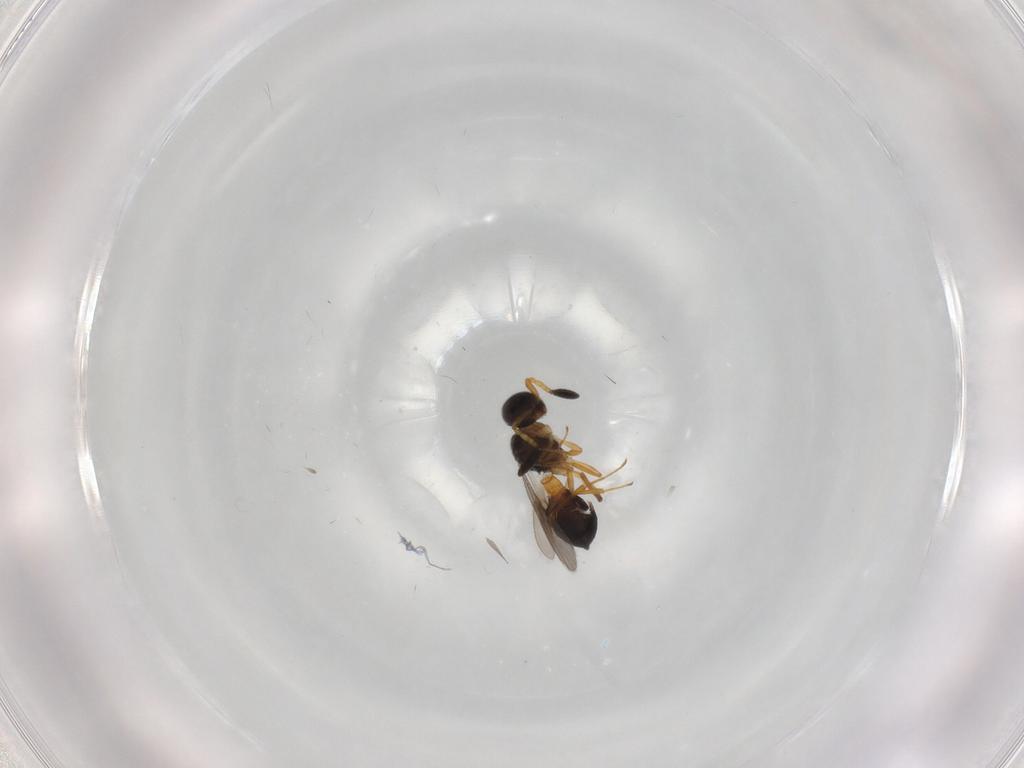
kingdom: Animalia
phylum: Arthropoda
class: Insecta
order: Hymenoptera
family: Scelionidae
